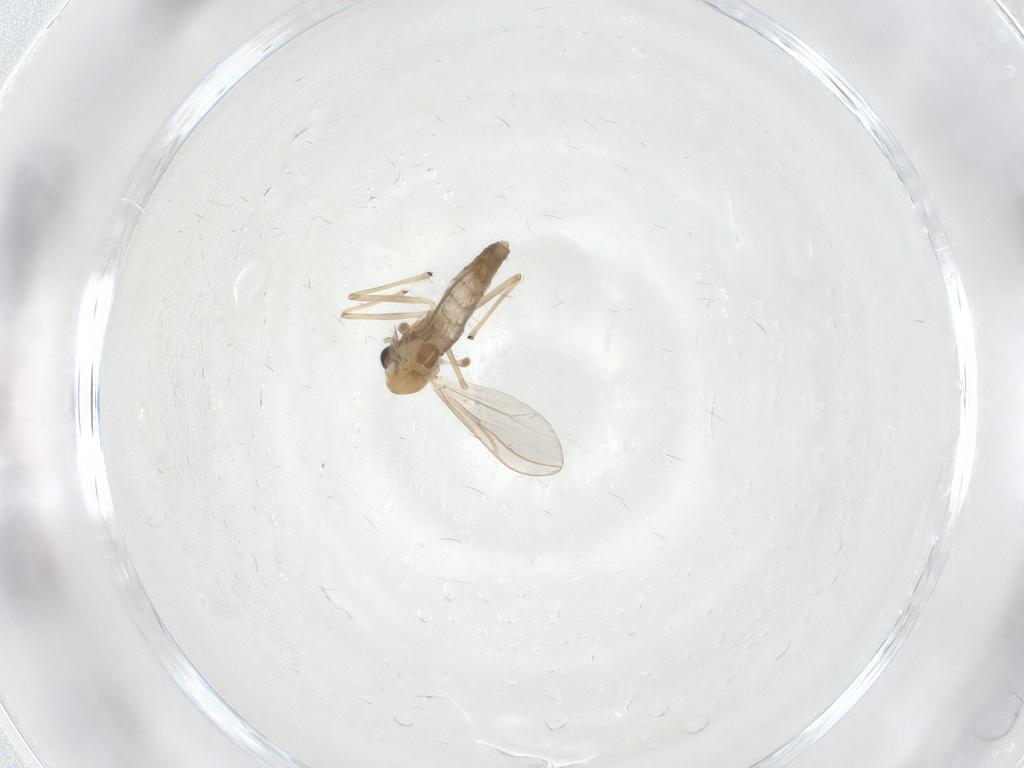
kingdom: Animalia
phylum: Arthropoda
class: Insecta
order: Diptera
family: Chironomidae
